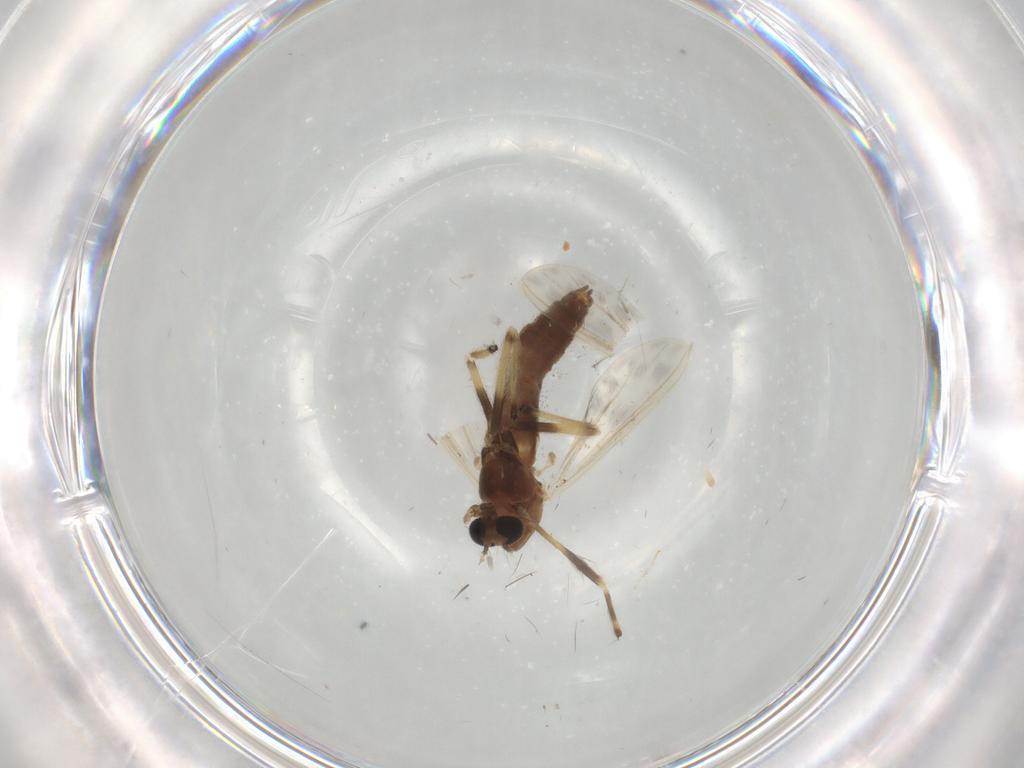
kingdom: Animalia
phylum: Arthropoda
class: Insecta
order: Diptera
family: Chironomidae
